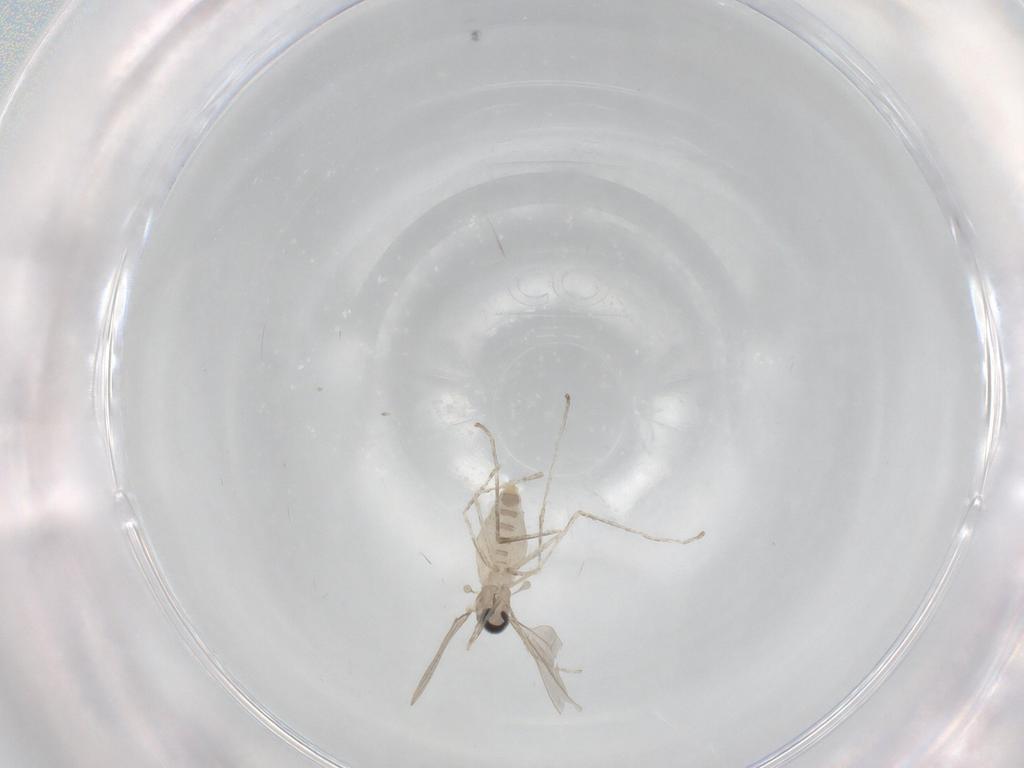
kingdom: Animalia
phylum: Arthropoda
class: Insecta
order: Diptera
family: Cecidomyiidae
